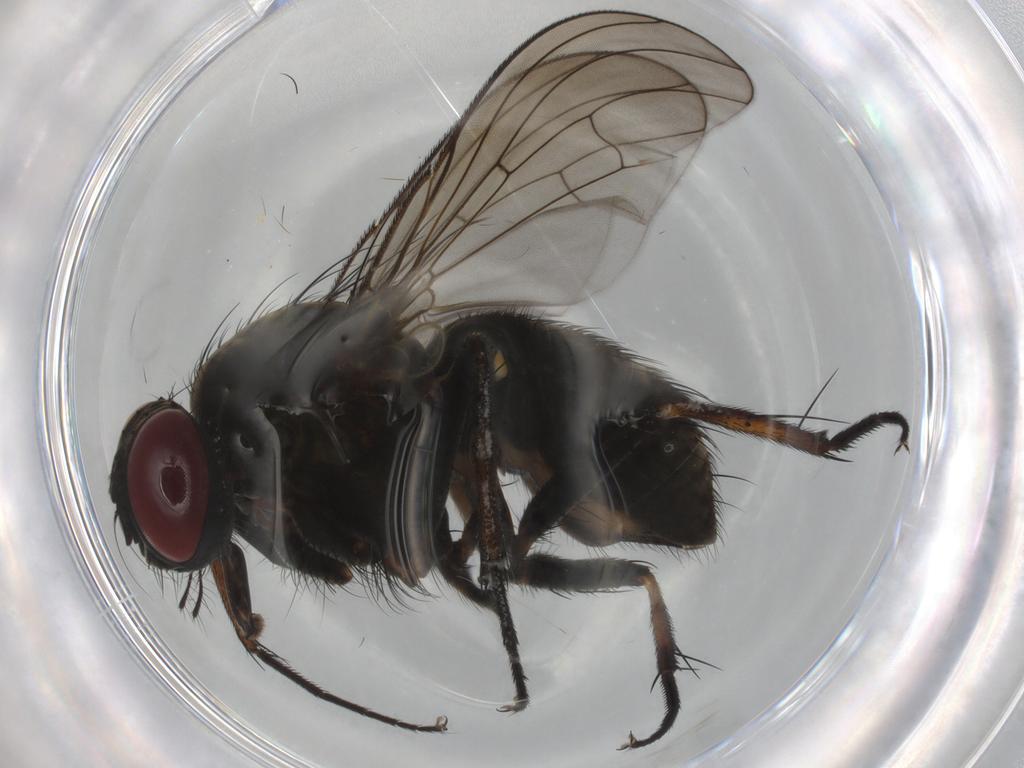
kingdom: Animalia
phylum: Arthropoda
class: Insecta
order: Diptera
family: Muscidae
